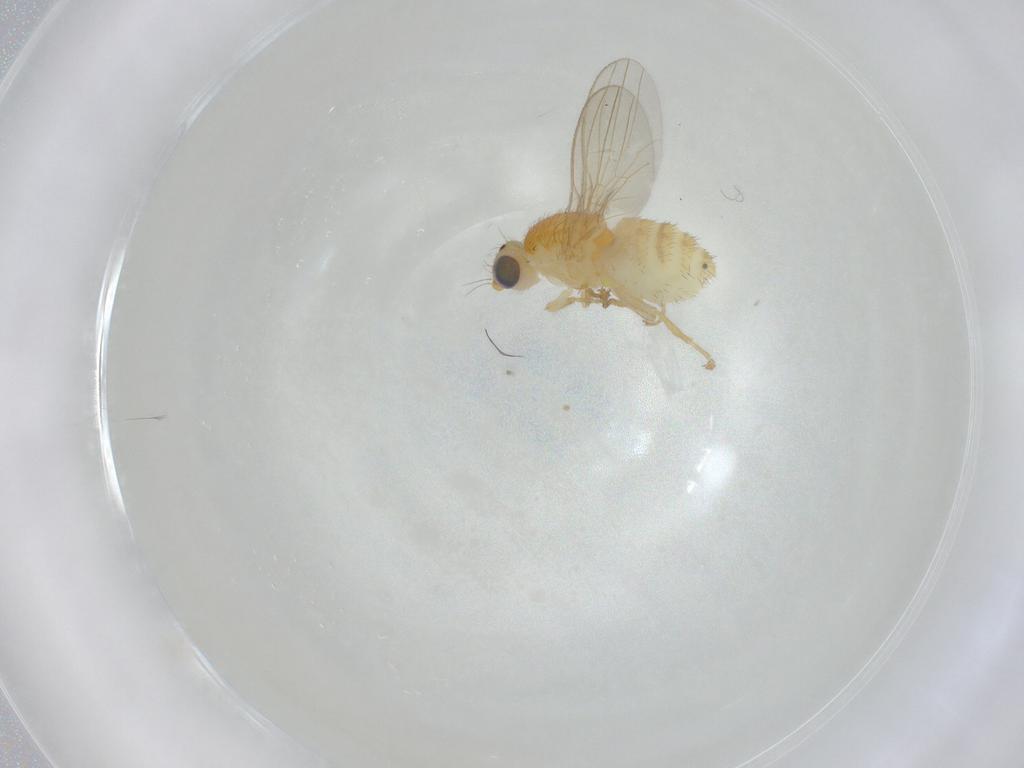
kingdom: Animalia
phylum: Arthropoda
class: Insecta
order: Diptera
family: Chyromyidae
